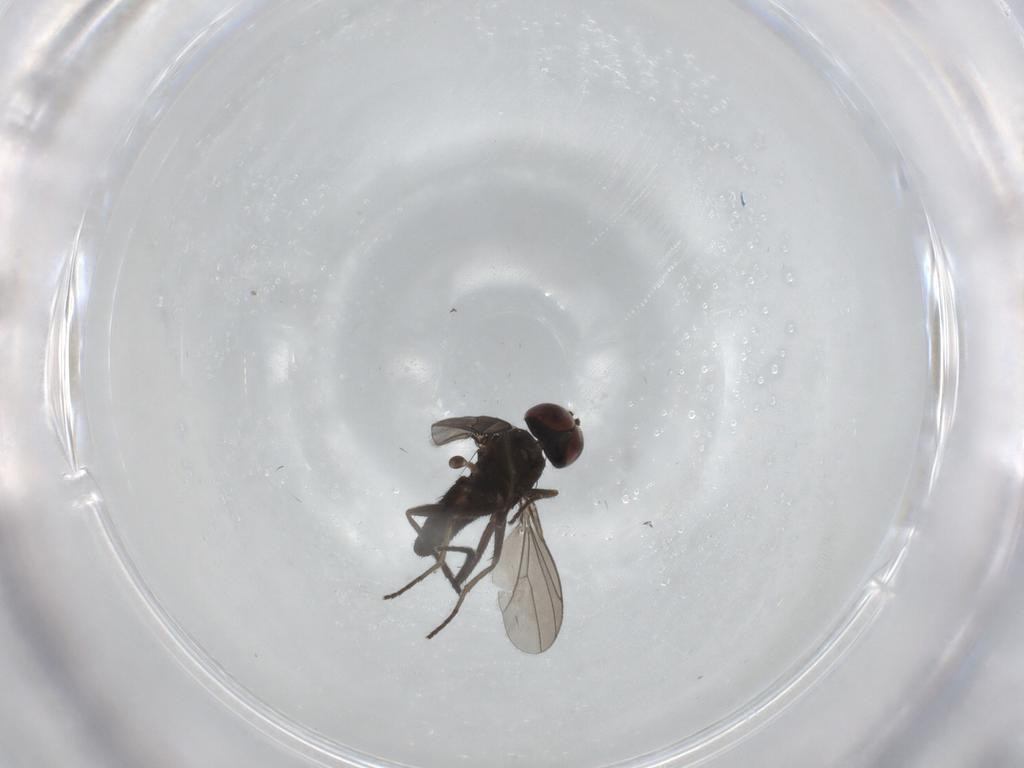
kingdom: Animalia
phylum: Arthropoda
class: Insecta
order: Diptera
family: Dolichopodidae
